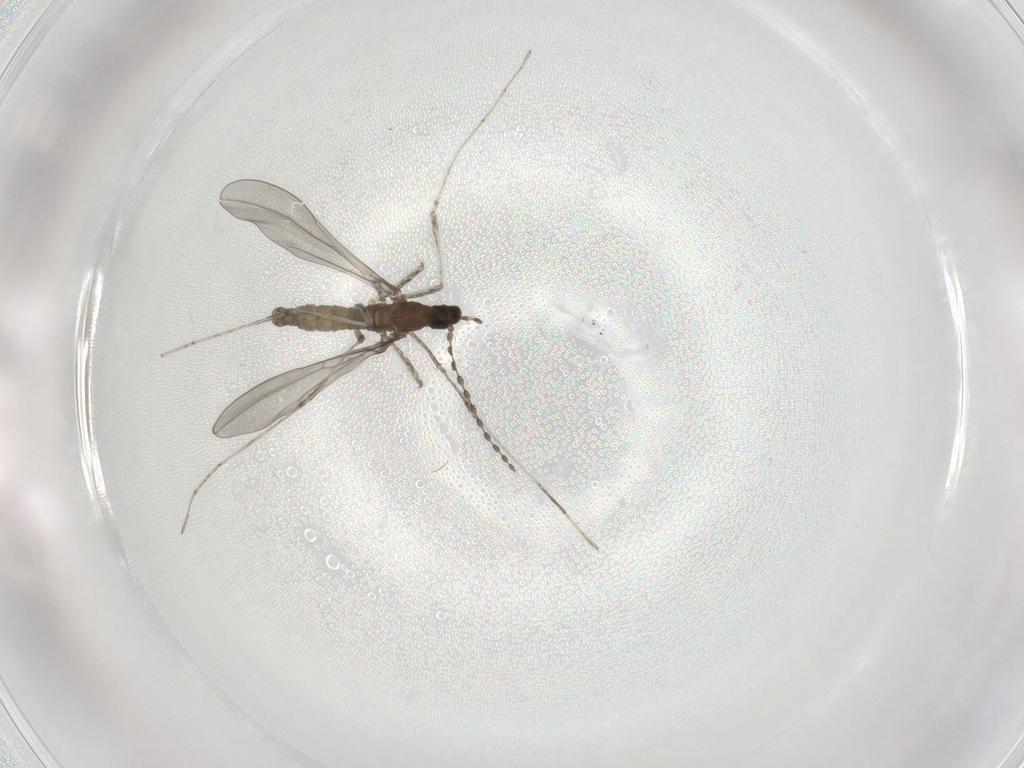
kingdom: Animalia
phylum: Arthropoda
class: Insecta
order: Diptera
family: Cecidomyiidae
